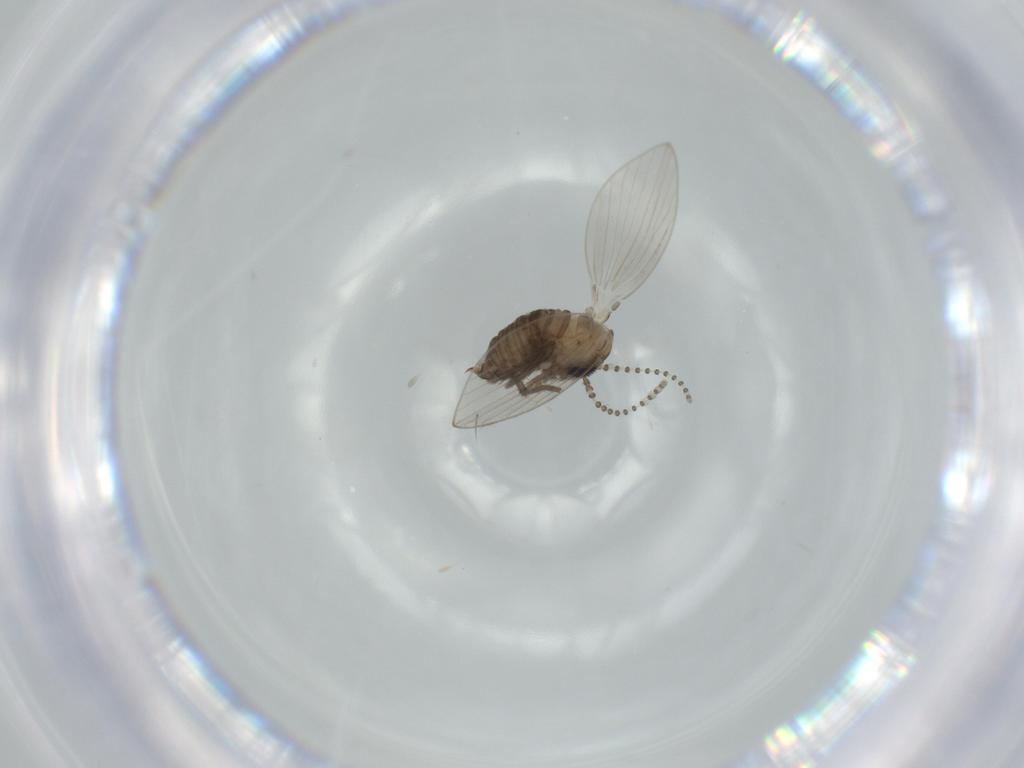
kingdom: Animalia
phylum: Arthropoda
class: Insecta
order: Diptera
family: Psychodidae
